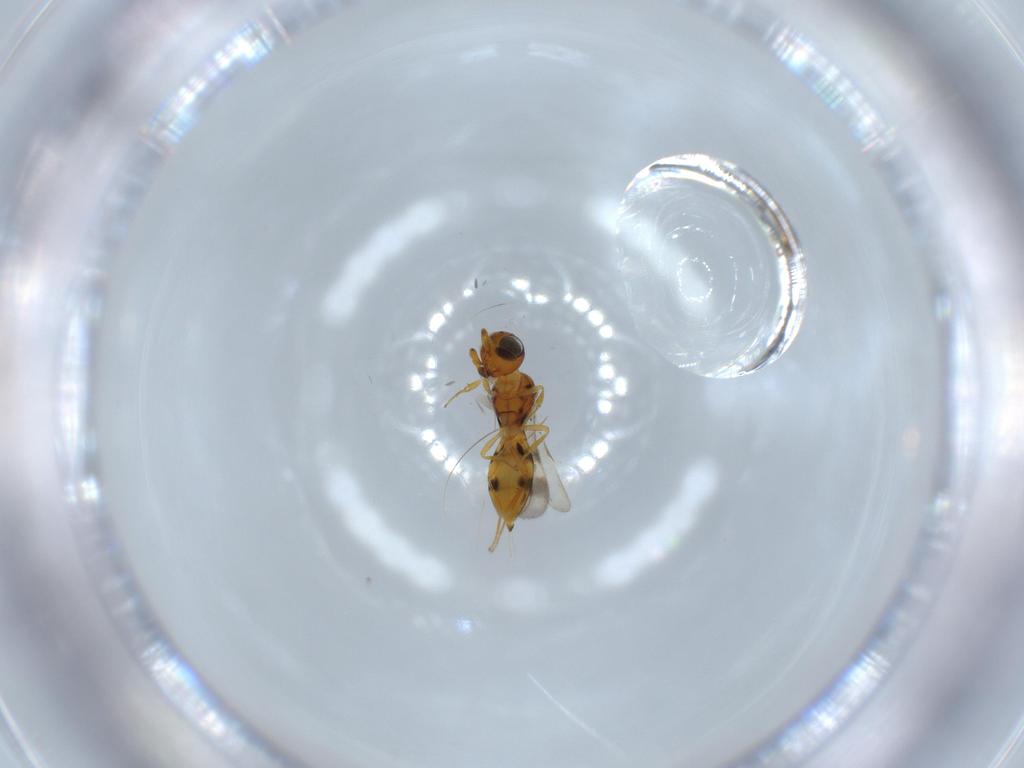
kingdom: Animalia
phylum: Arthropoda
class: Insecta
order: Hymenoptera
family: Scelionidae
